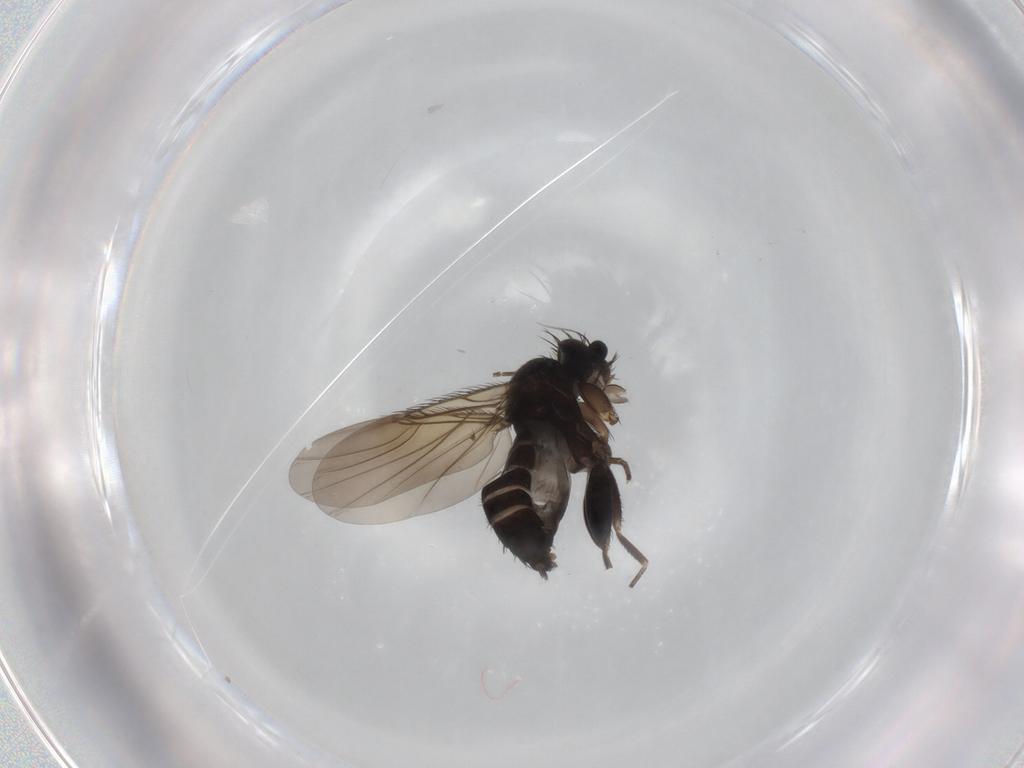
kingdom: Animalia
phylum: Arthropoda
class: Insecta
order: Diptera
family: Phoridae
